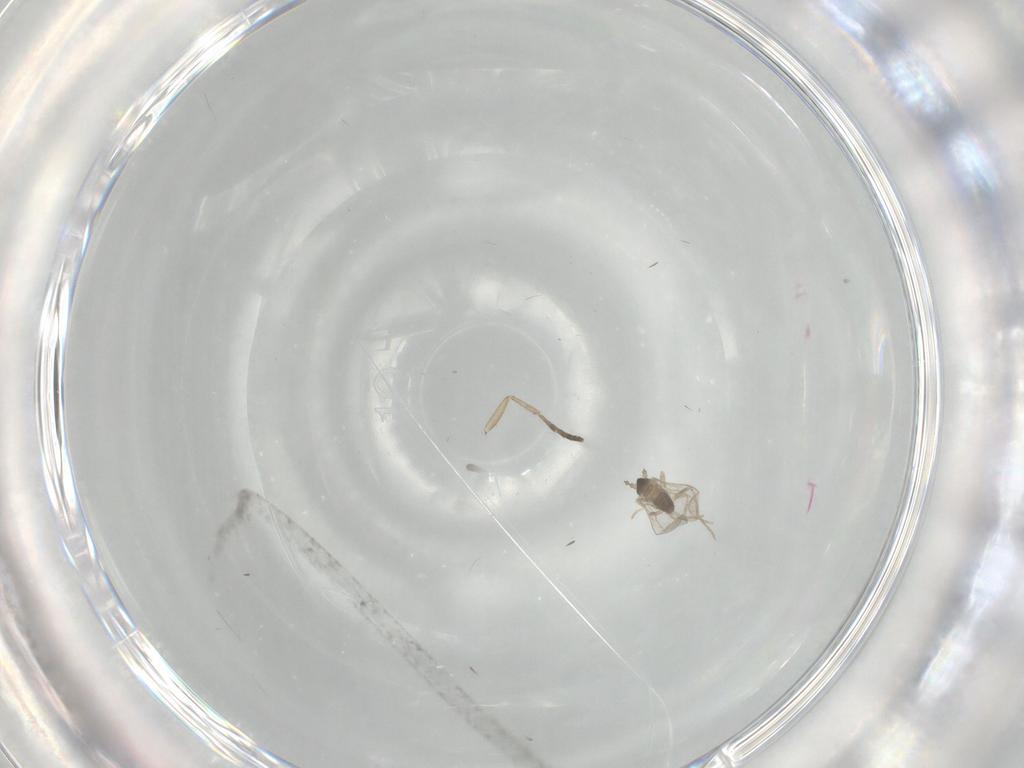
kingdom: Animalia
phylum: Arthropoda
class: Insecta
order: Diptera
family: Cecidomyiidae
